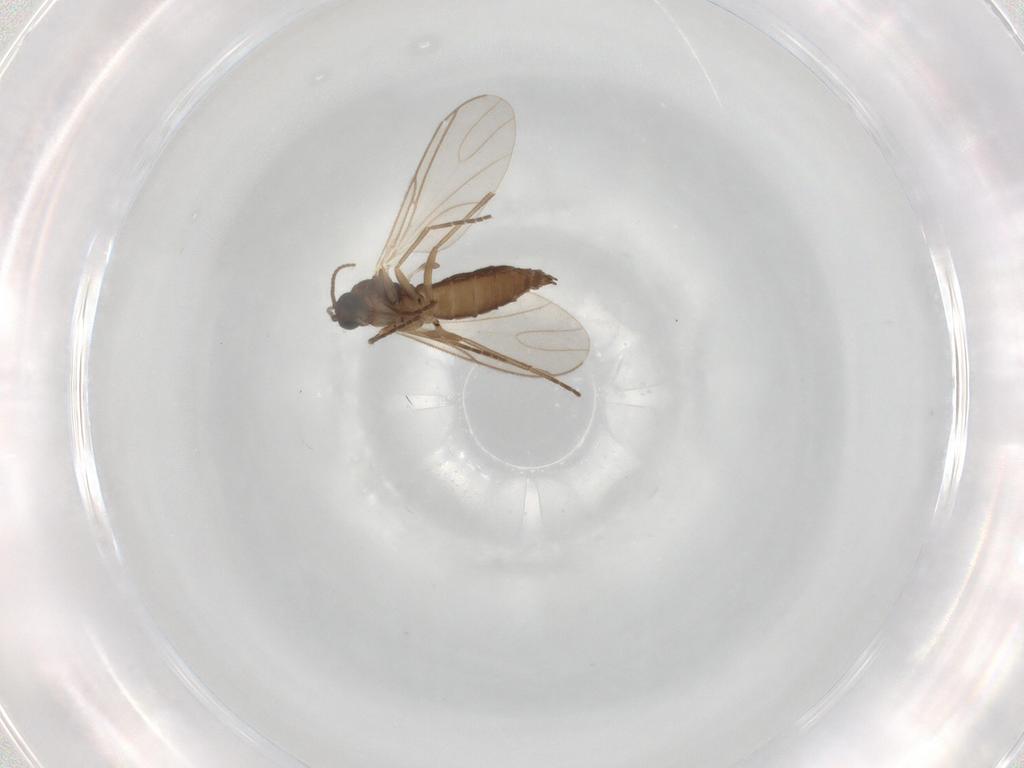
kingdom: Animalia
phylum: Arthropoda
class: Insecta
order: Diptera
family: Sciaridae
